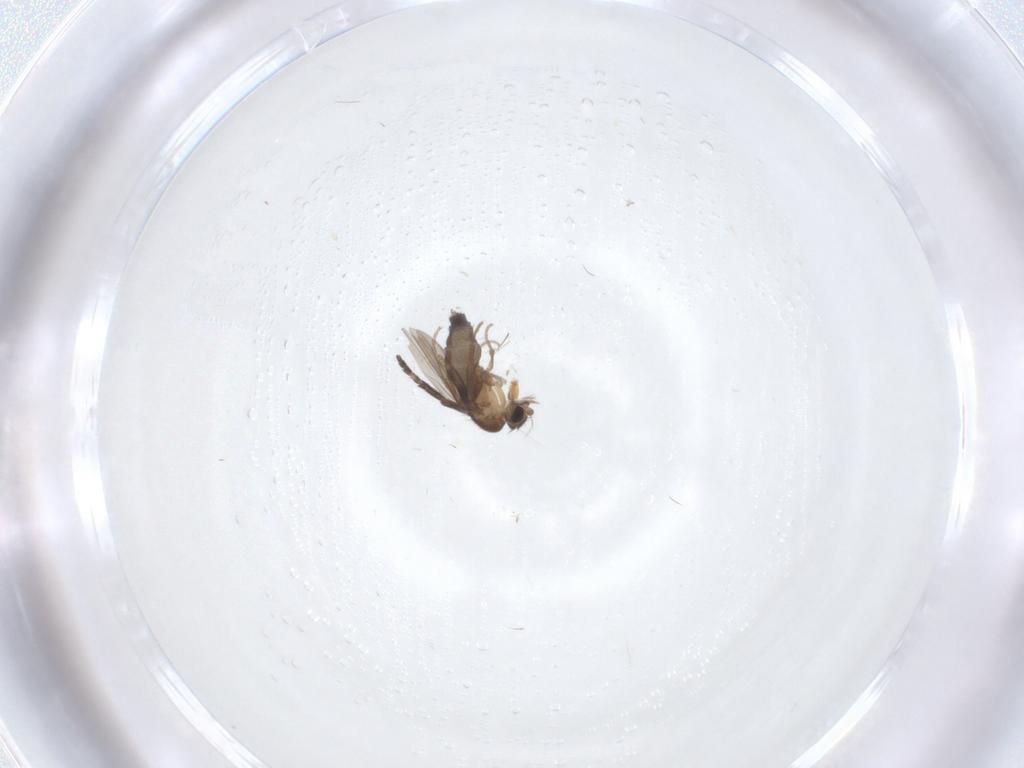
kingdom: Animalia
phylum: Arthropoda
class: Insecta
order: Diptera
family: Phoridae
